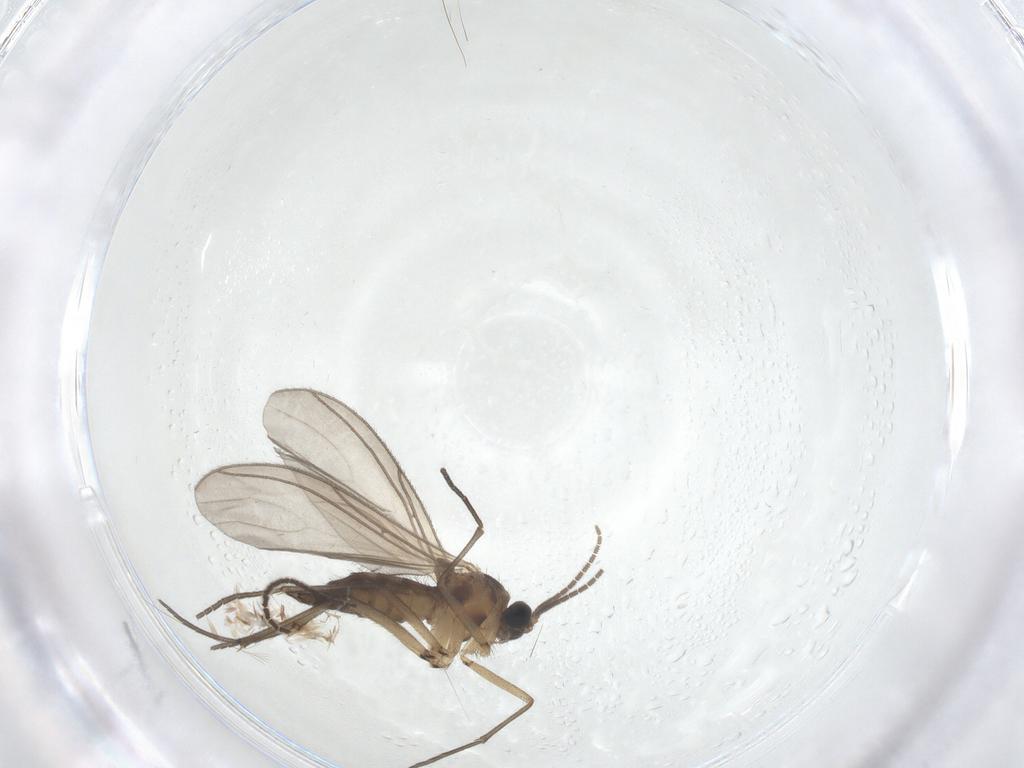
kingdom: Animalia
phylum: Arthropoda
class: Insecta
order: Diptera
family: Sciaridae
